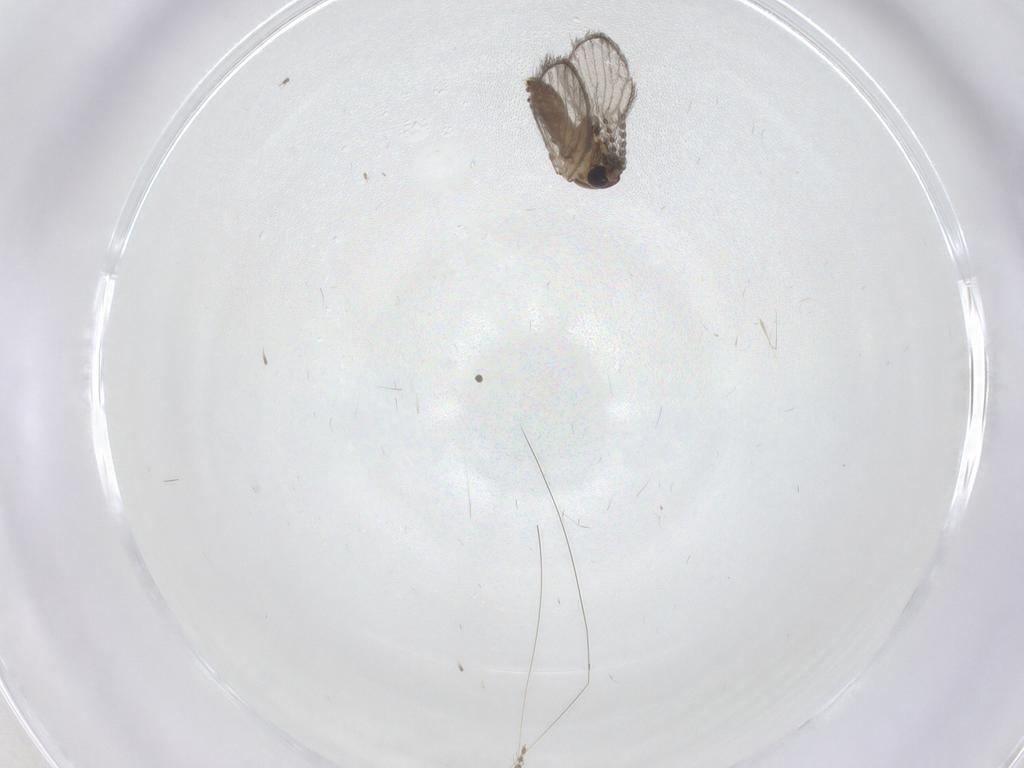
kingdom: Animalia
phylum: Arthropoda
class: Insecta
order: Diptera
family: Psychodidae
